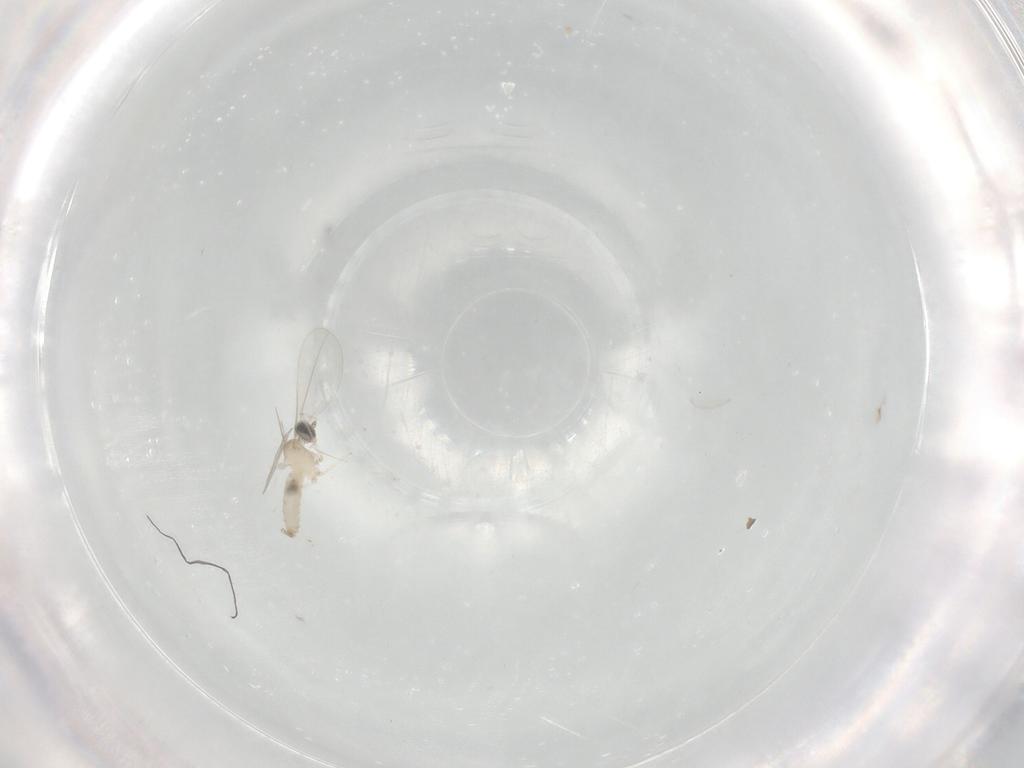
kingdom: Animalia
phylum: Arthropoda
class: Insecta
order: Diptera
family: Cecidomyiidae
